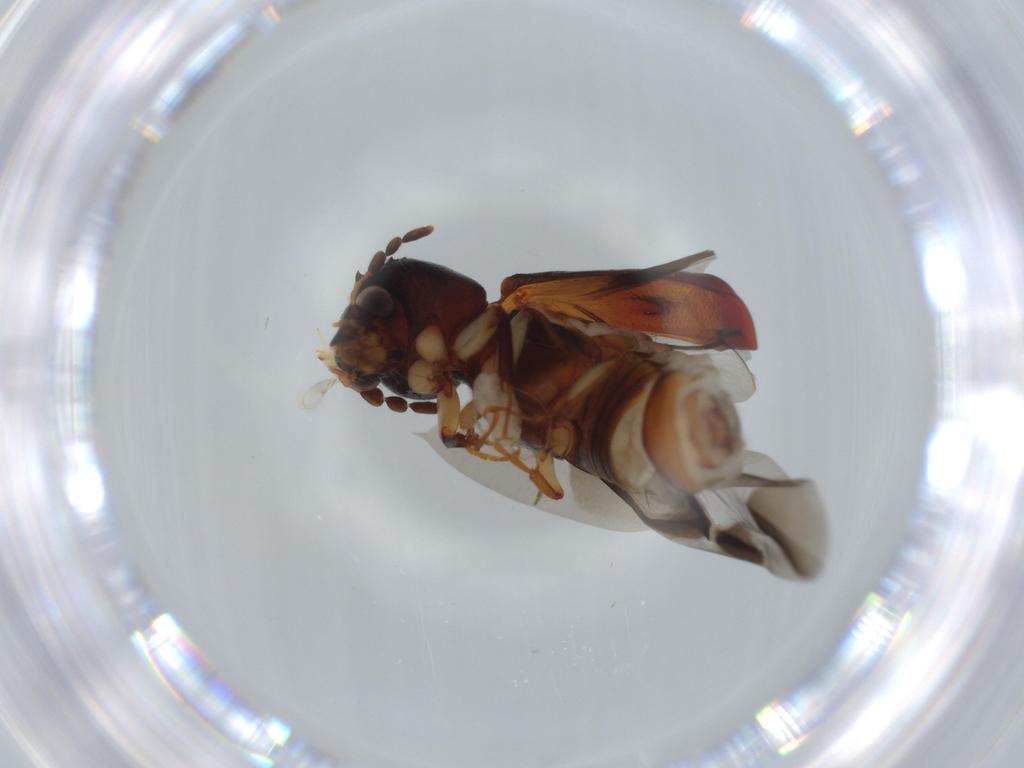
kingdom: Animalia
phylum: Arthropoda
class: Insecta
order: Coleoptera
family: Bostrichidae
